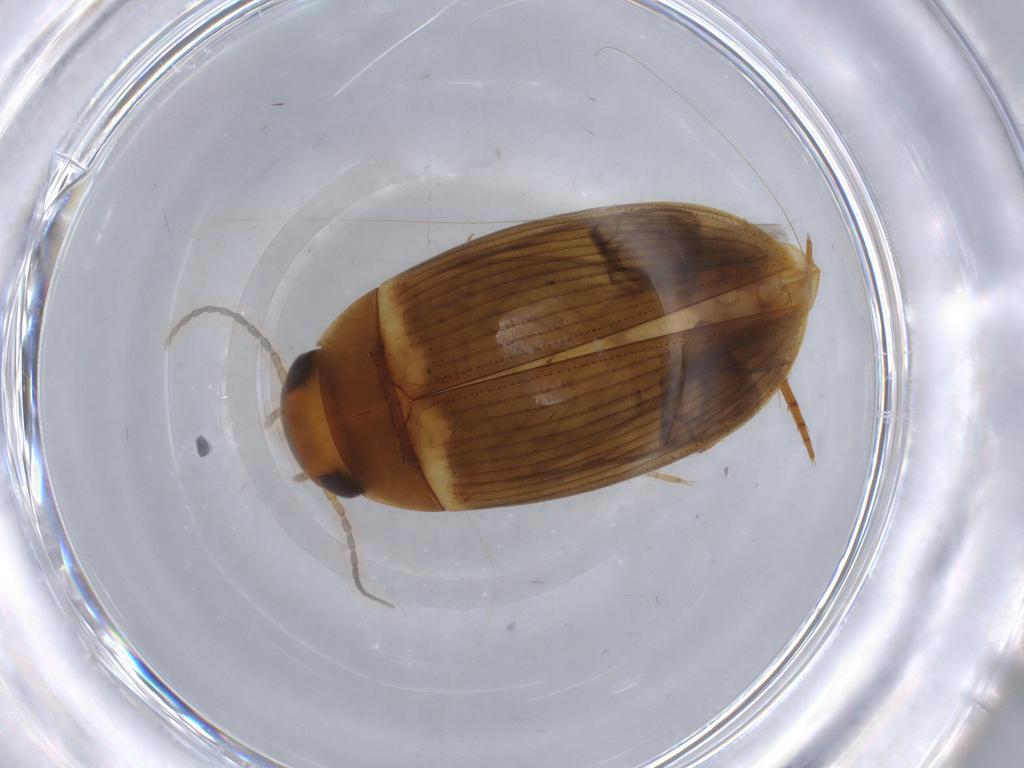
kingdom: Animalia
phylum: Arthropoda
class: Insecta
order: Coleoptera
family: Dytiscidae
